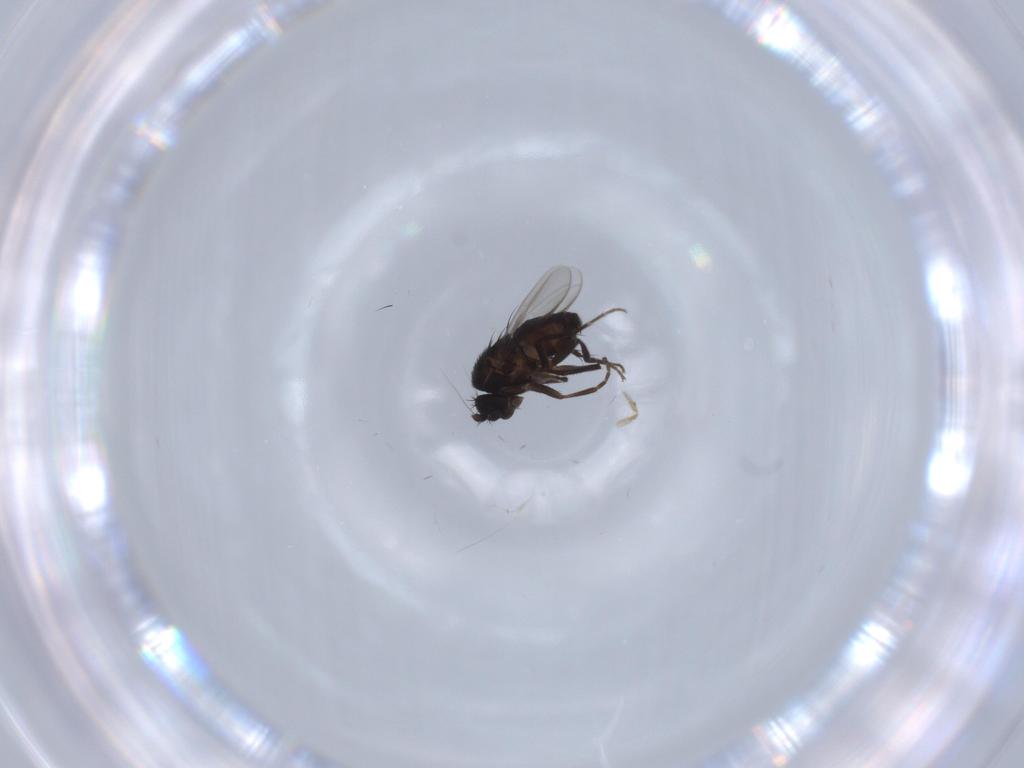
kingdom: Animalia
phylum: Arthropoda
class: Insecta
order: Diptera
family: Sphaeroceridae
